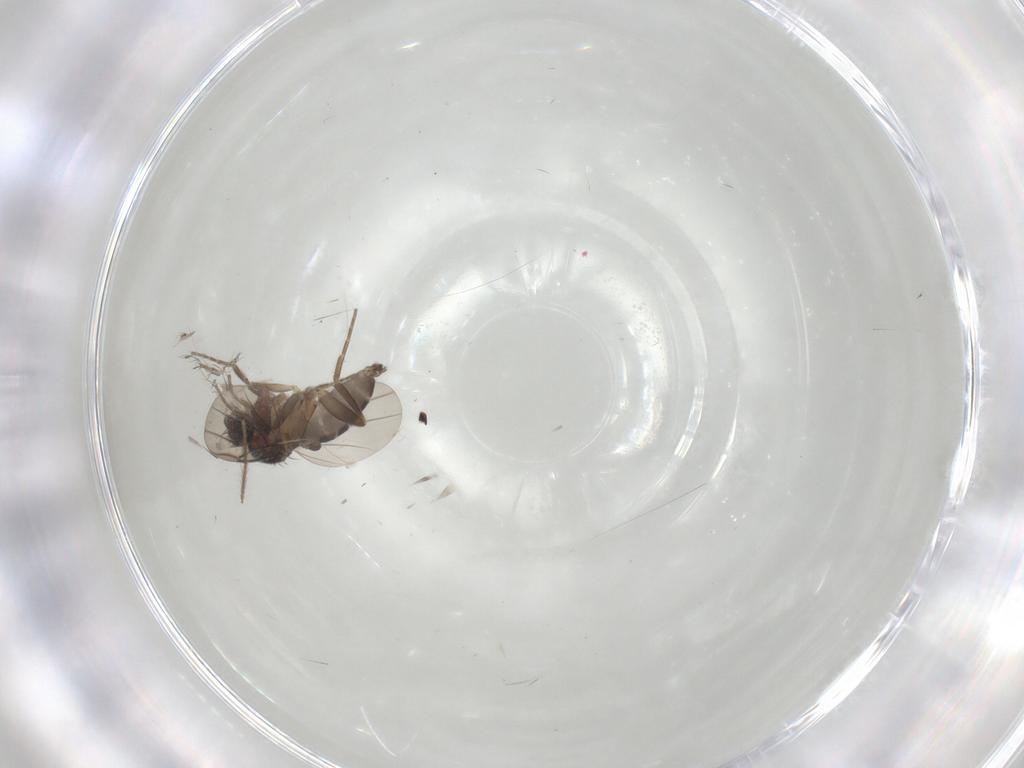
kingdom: Animalia
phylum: Arthropoda
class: Insecta
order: Diptera
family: Phoridae
